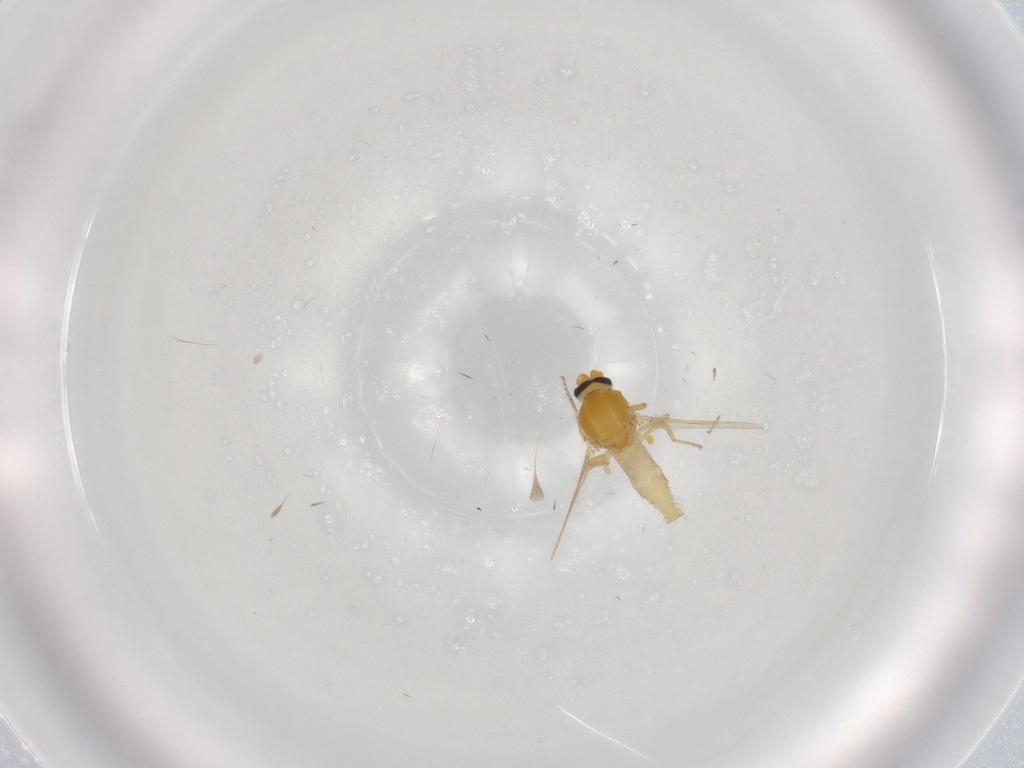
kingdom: Animalia
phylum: Arthropoda
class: Insecta
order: Diptera
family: Ceratopogonidae
